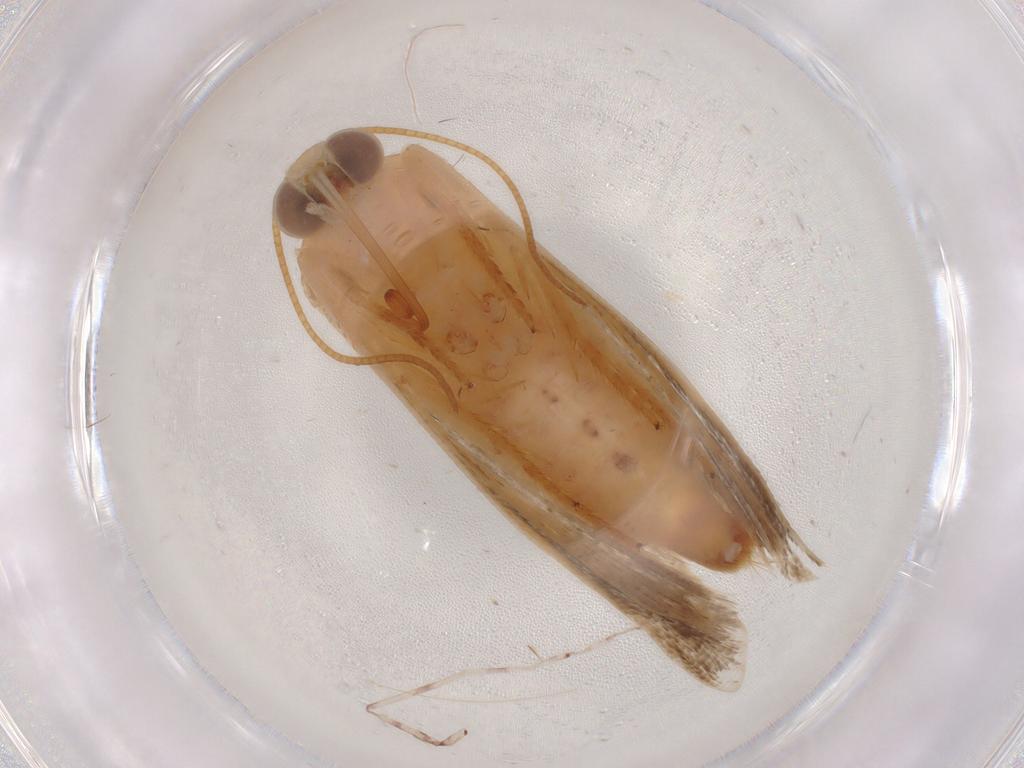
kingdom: Animalia
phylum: Arthropoda
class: Insecta
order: Lepidoptera
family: Noctuidae
